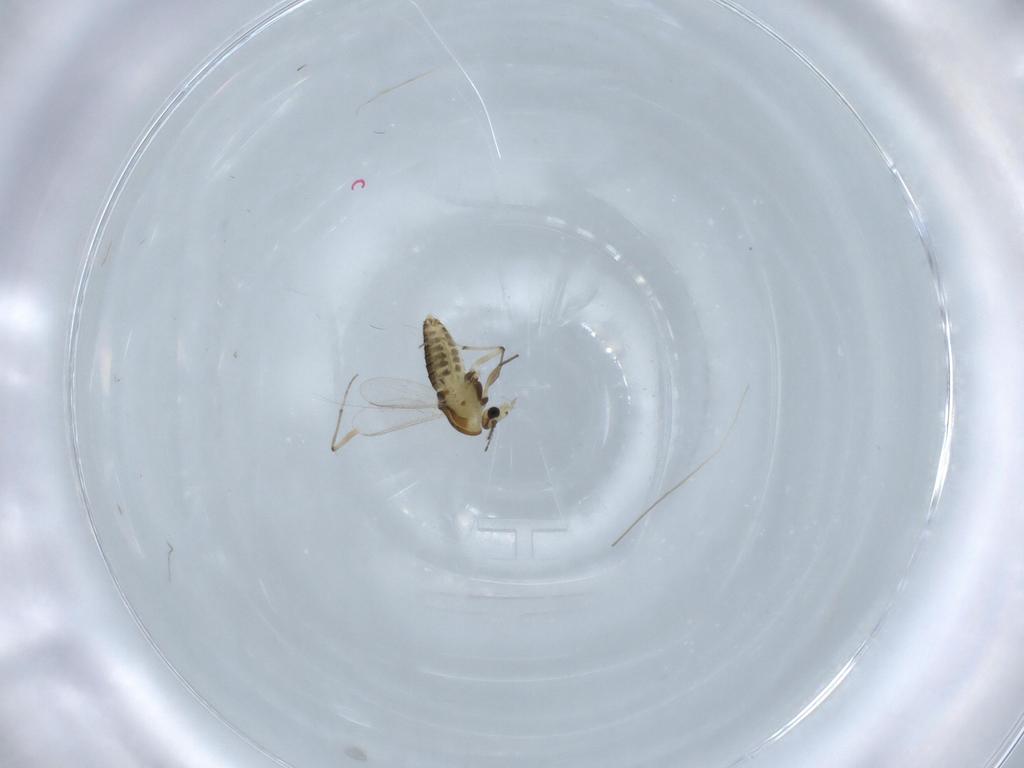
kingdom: Animalia
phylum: Arthropoda
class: Insecta
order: Diptera
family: Chironomidae
